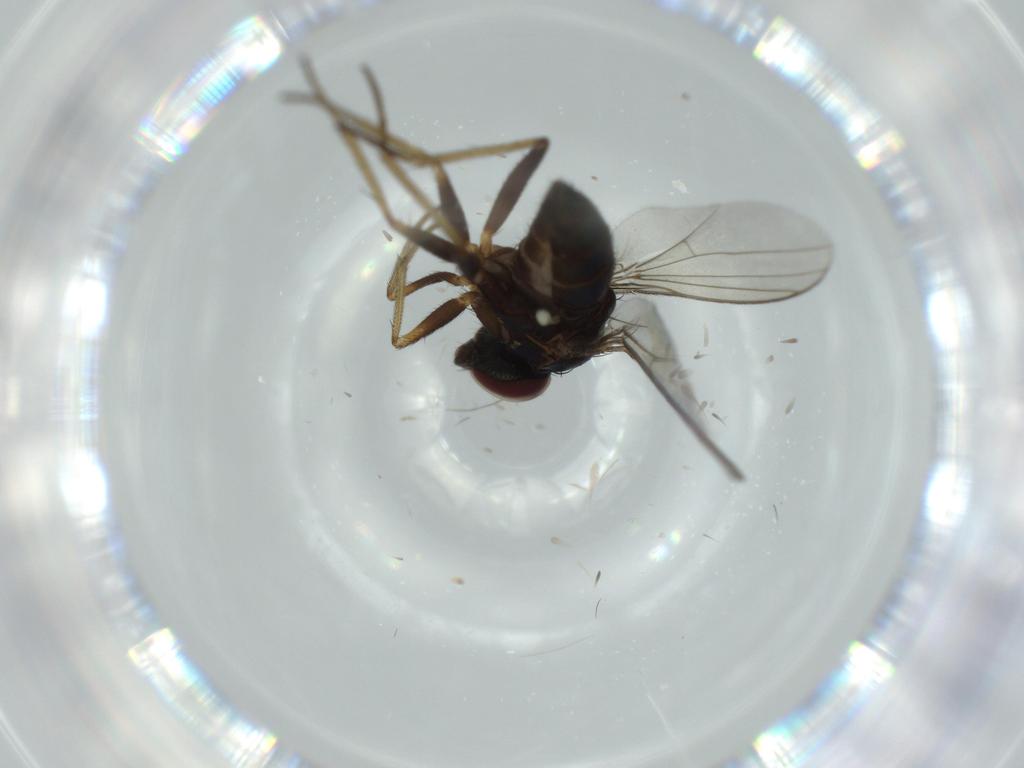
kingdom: Animalia
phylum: Arthropoda
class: Insecta
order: Diptera
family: Dolichopodidae
